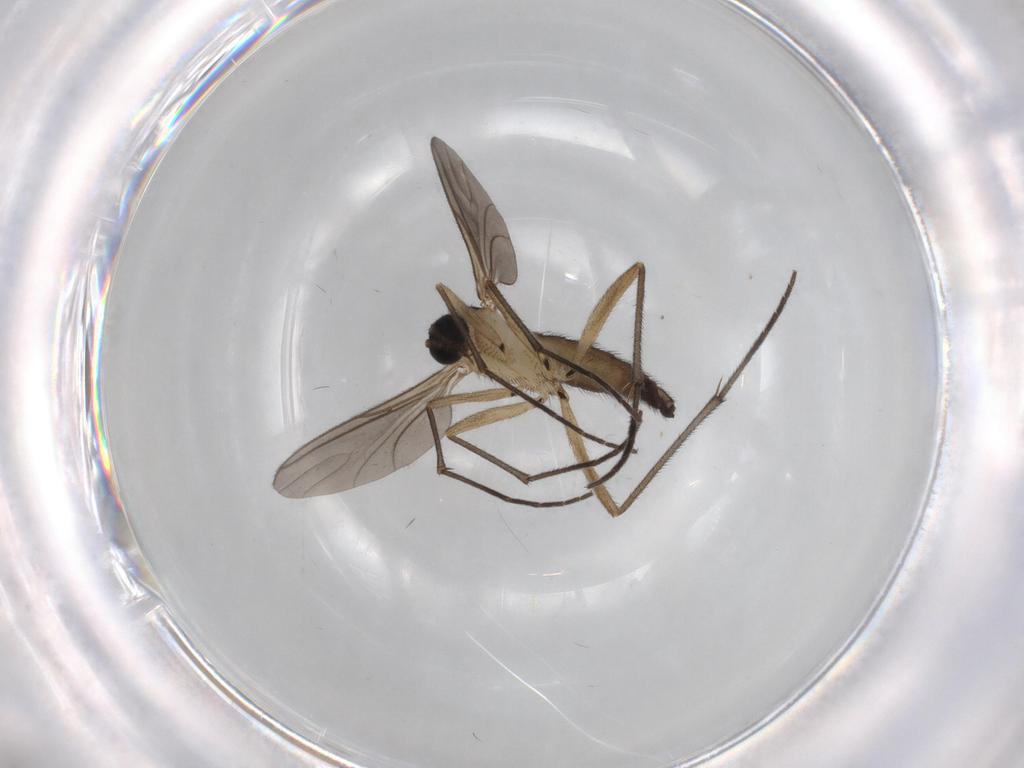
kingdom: Animalia
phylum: Arthropoda
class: Insecta
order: Diptera
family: Sciaridae
